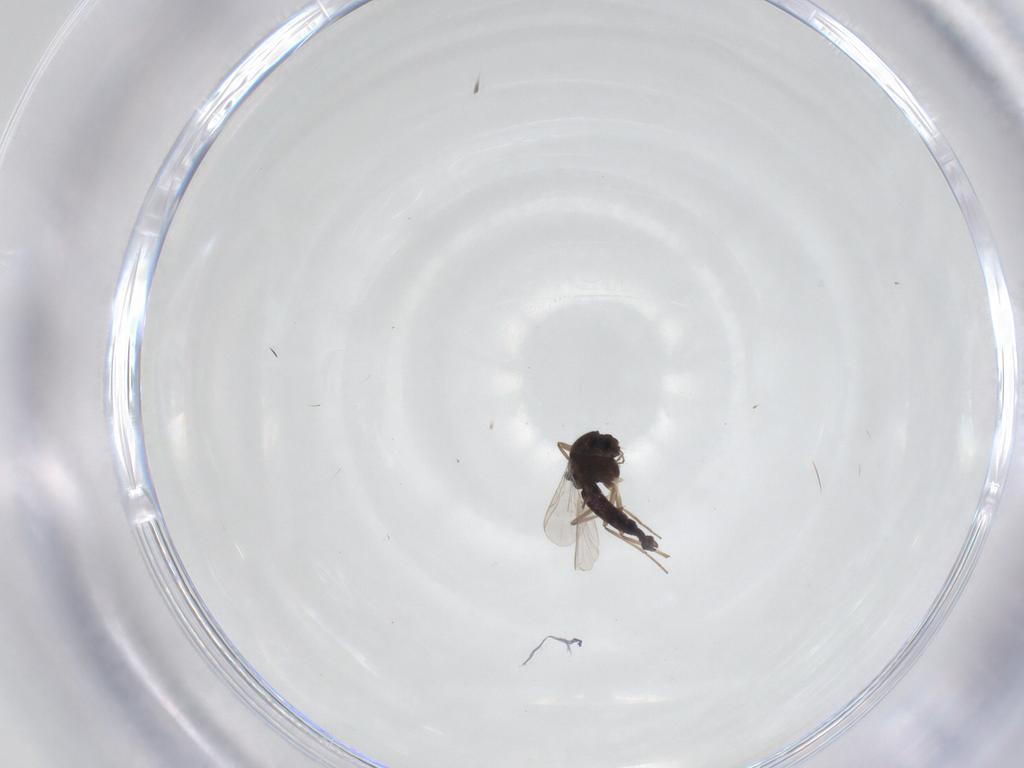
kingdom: Animalia
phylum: Arthropoda
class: Insecta
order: Diptera
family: Chironomidae
